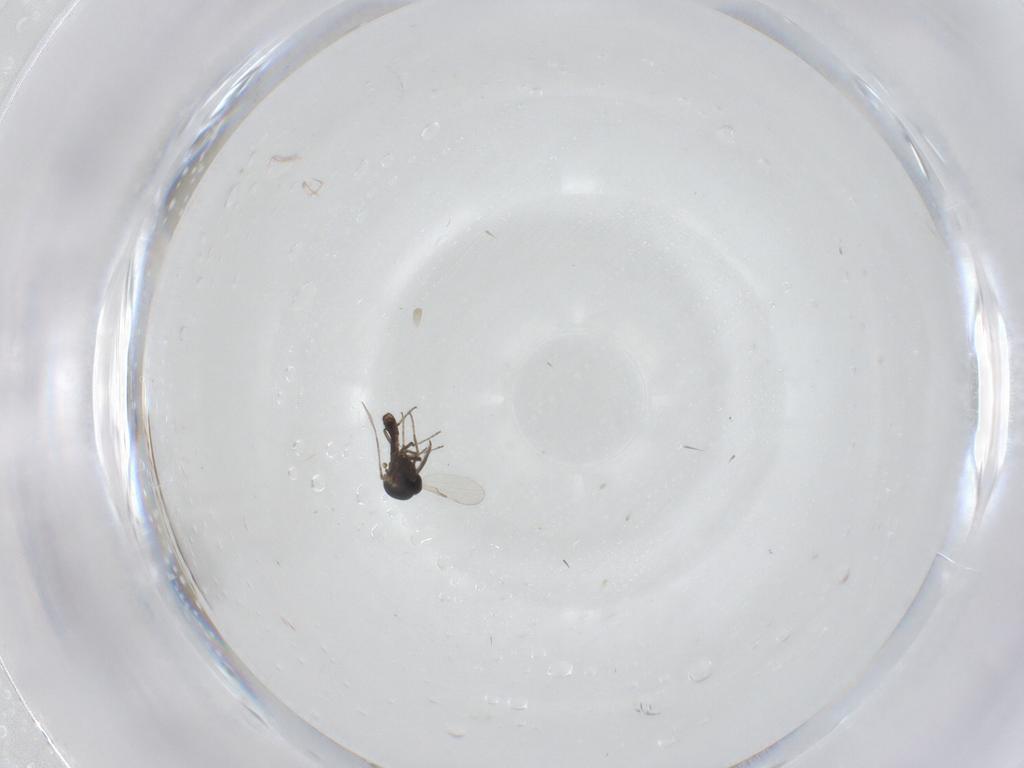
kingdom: Animalia
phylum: Arthropoda
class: Insecta
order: Diptera
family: Ceratopogonidae
